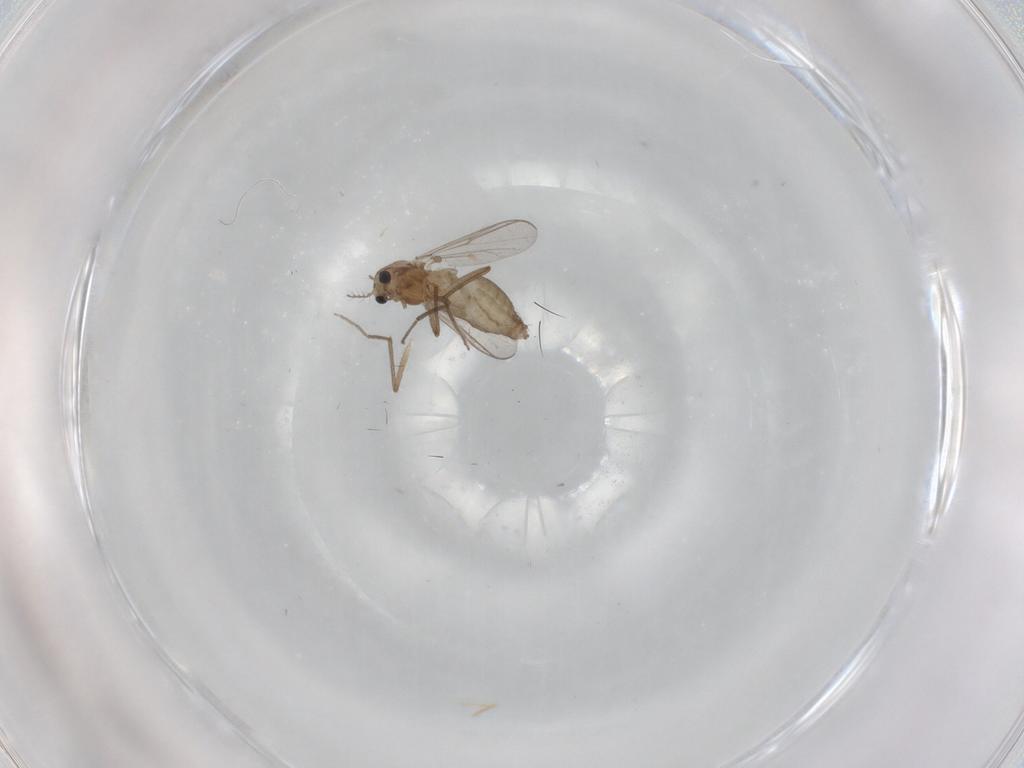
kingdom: Animalia
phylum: Arthropoda
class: Insecta
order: Diptera
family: Chironomidae
